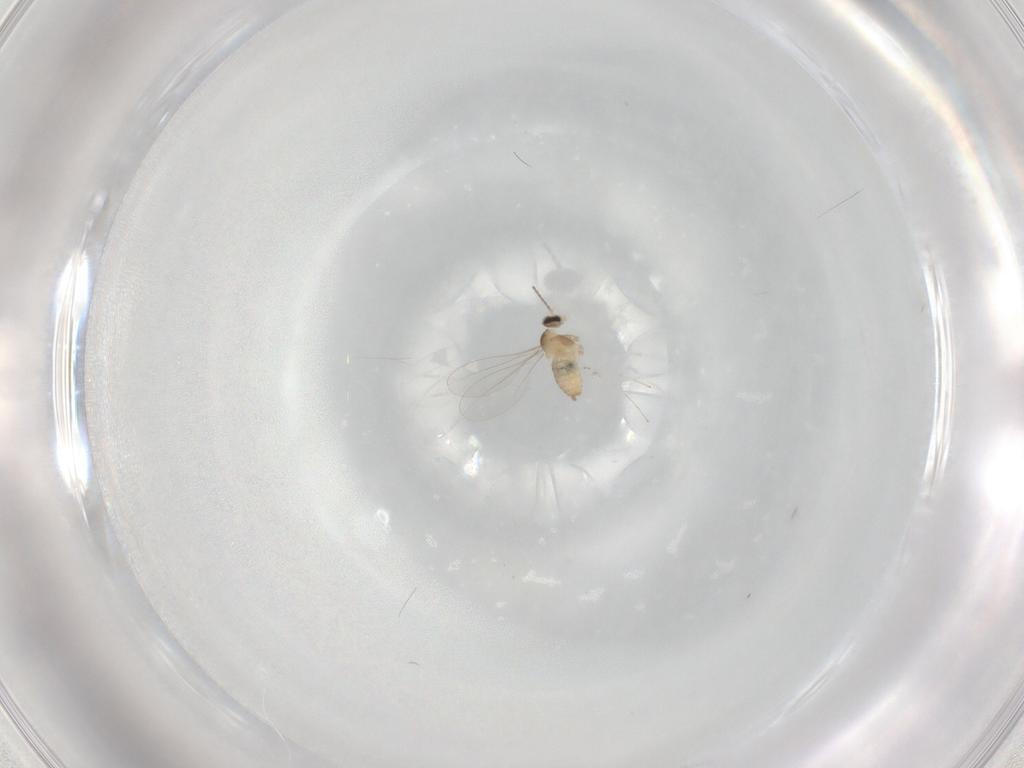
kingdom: Animalia
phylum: Arthropoda
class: Insecta
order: Diptera
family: Cecidomyiidae
